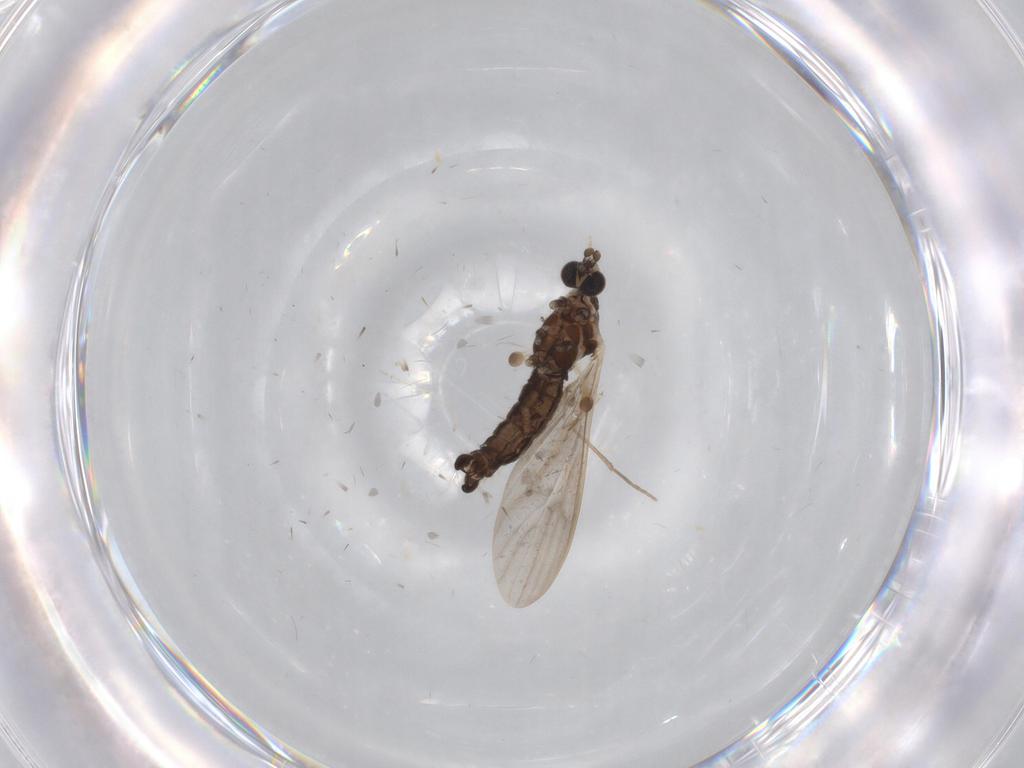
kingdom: Animalia
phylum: Arthropoda
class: Insecta
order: Diptera
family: Limoniidae
